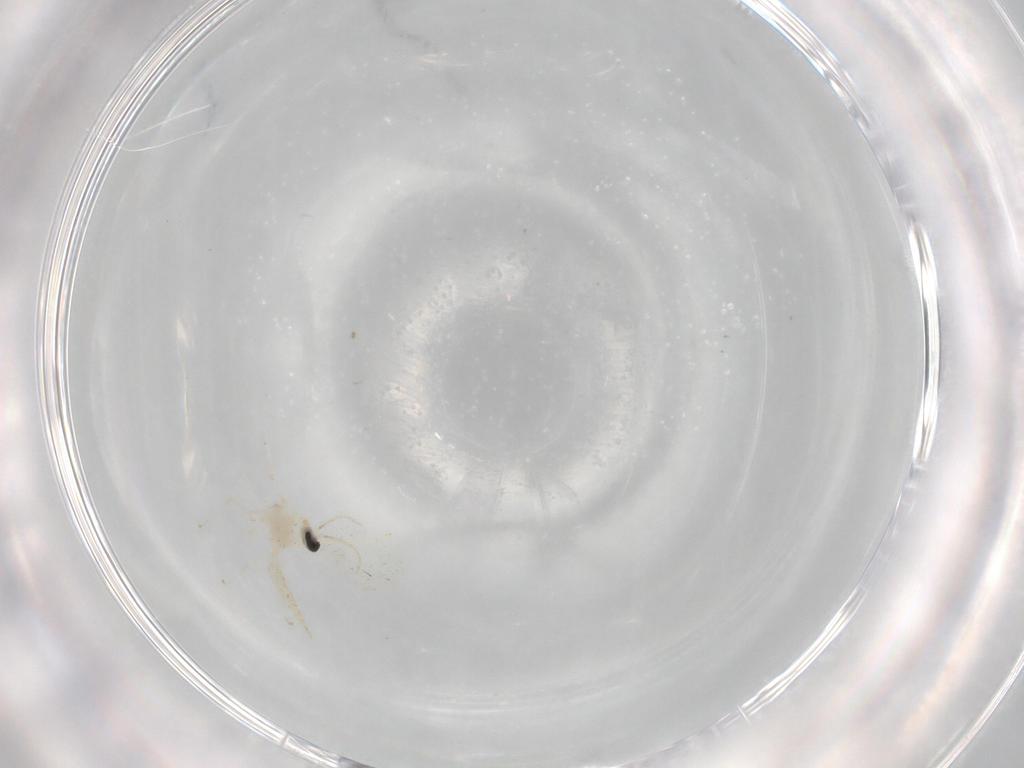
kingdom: Animalia
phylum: Arthropoda
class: Insecta
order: Diptera
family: Cecidomyiidae
